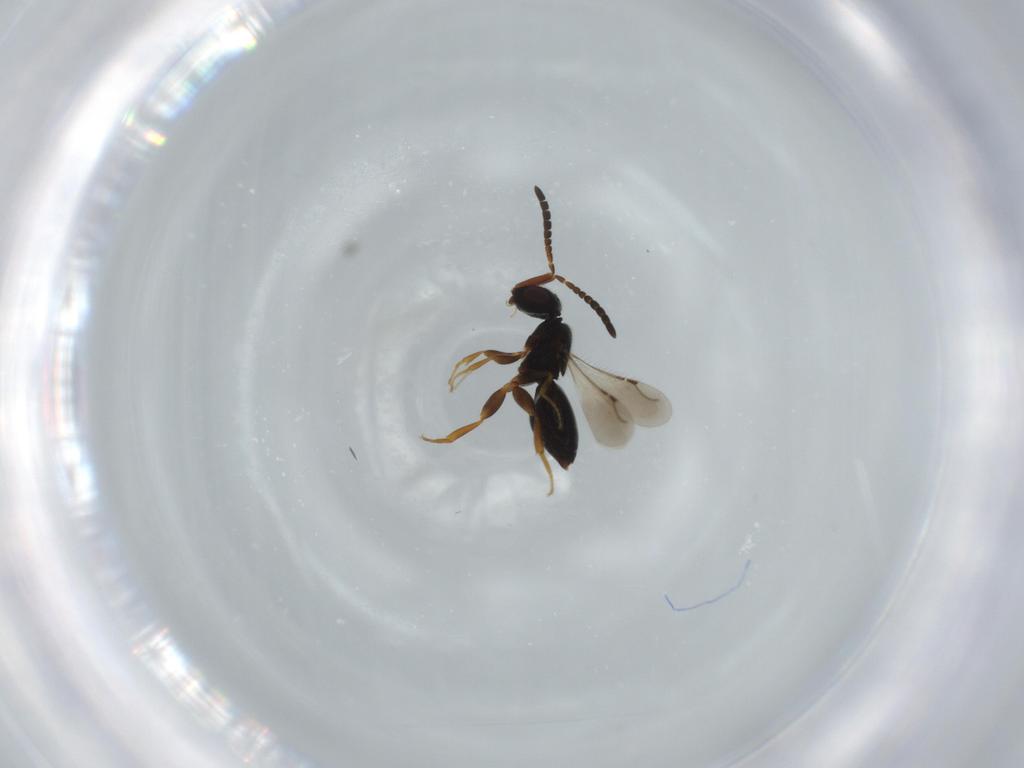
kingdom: Animalia
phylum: Arthropoda
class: Insecta
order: Hymenoptera
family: Ceraphronidae
